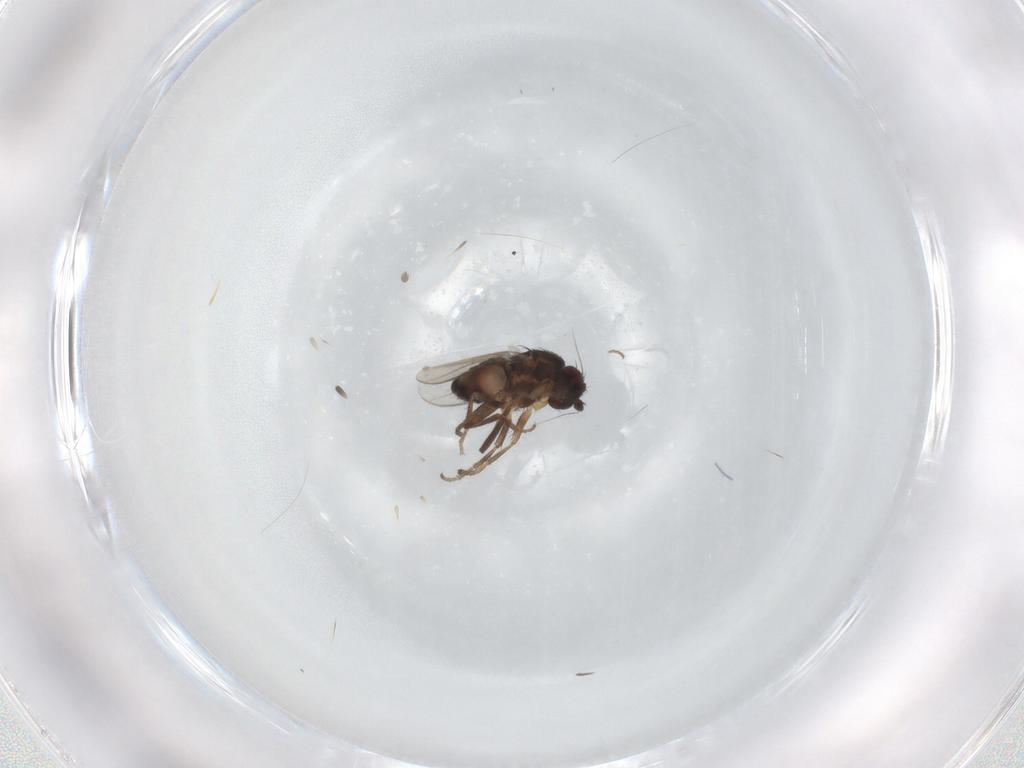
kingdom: Animalia
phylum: Arthropoda
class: Insecta
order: Diptera
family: Sphaeroceridae
